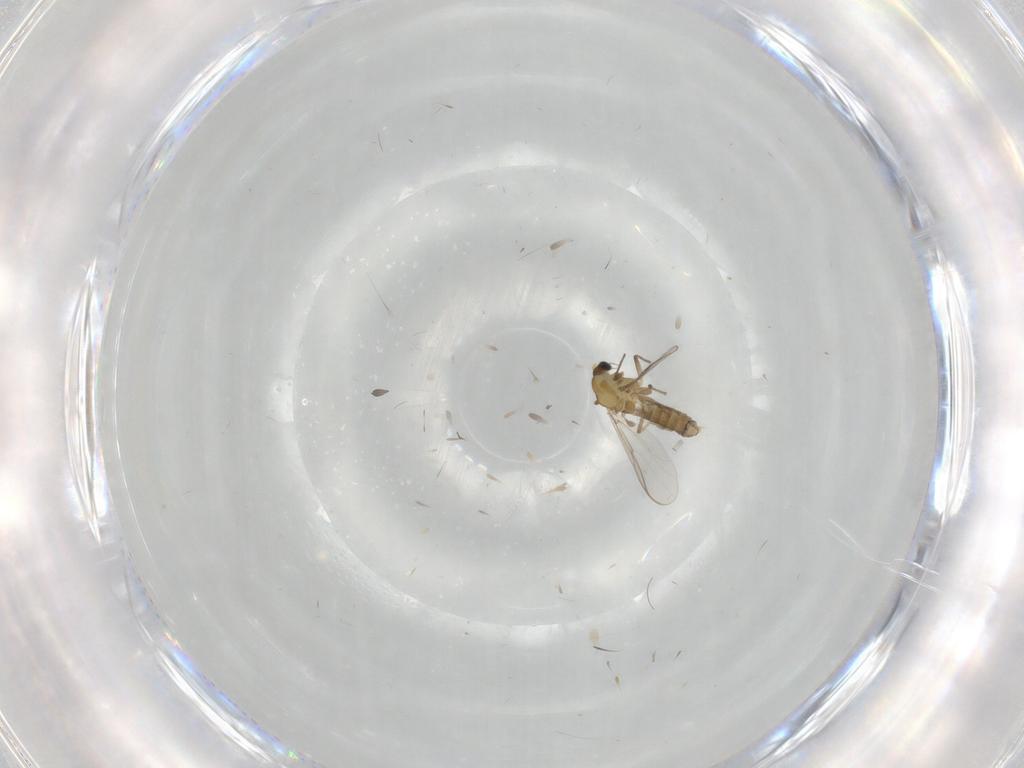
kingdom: Animalia
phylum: Arthropoda
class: Insecta
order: Diptera
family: Chironomidae
